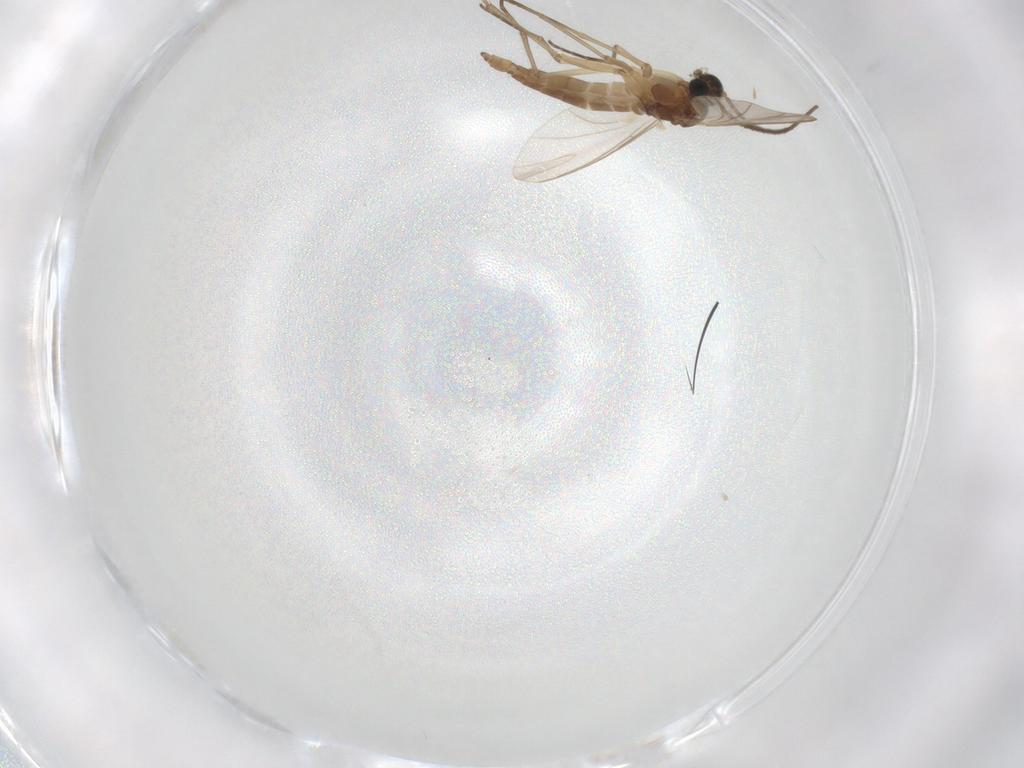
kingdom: Animalia
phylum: Arthropoda
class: Insecta
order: Diptera
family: Sciaridae
